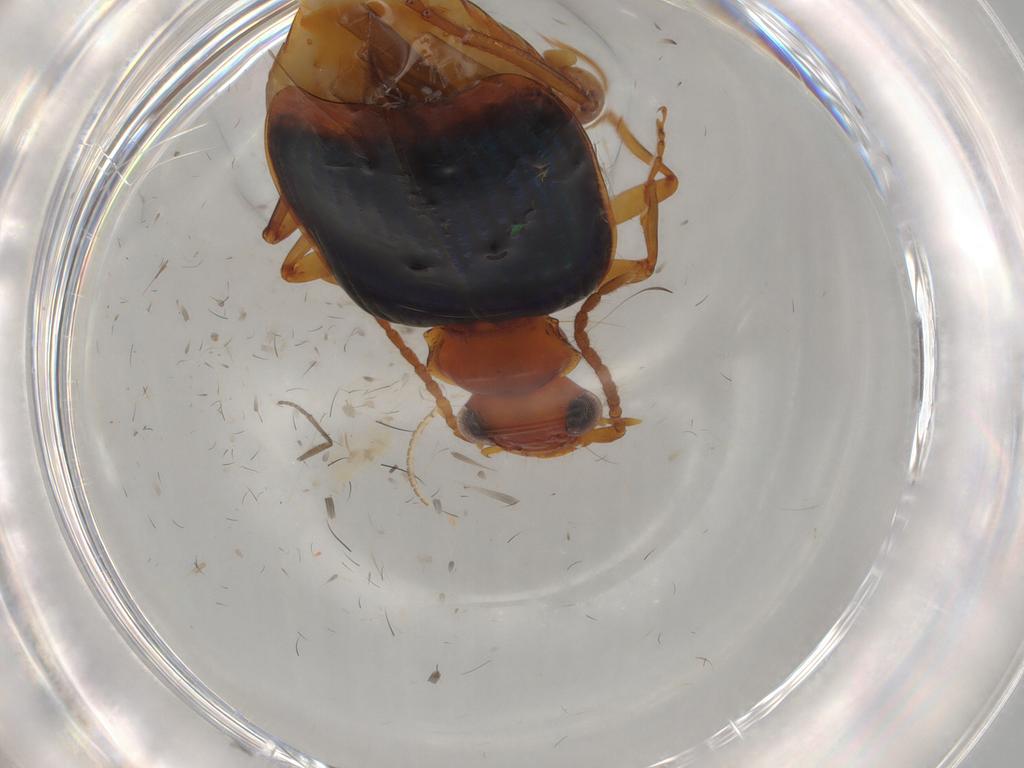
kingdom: Animalia
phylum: Arthropoda
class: Insecta
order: Coleoptera
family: Carabidae
